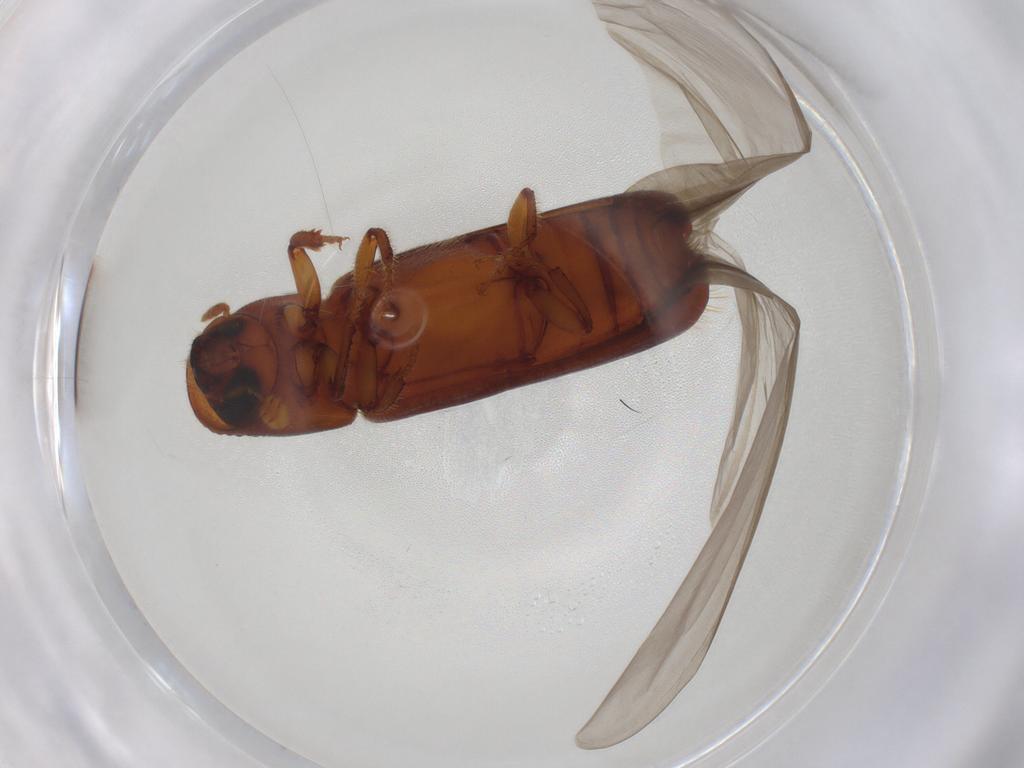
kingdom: Animalia
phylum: Arthropoda
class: Insecta
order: Coleoptera
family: Curculionidae
